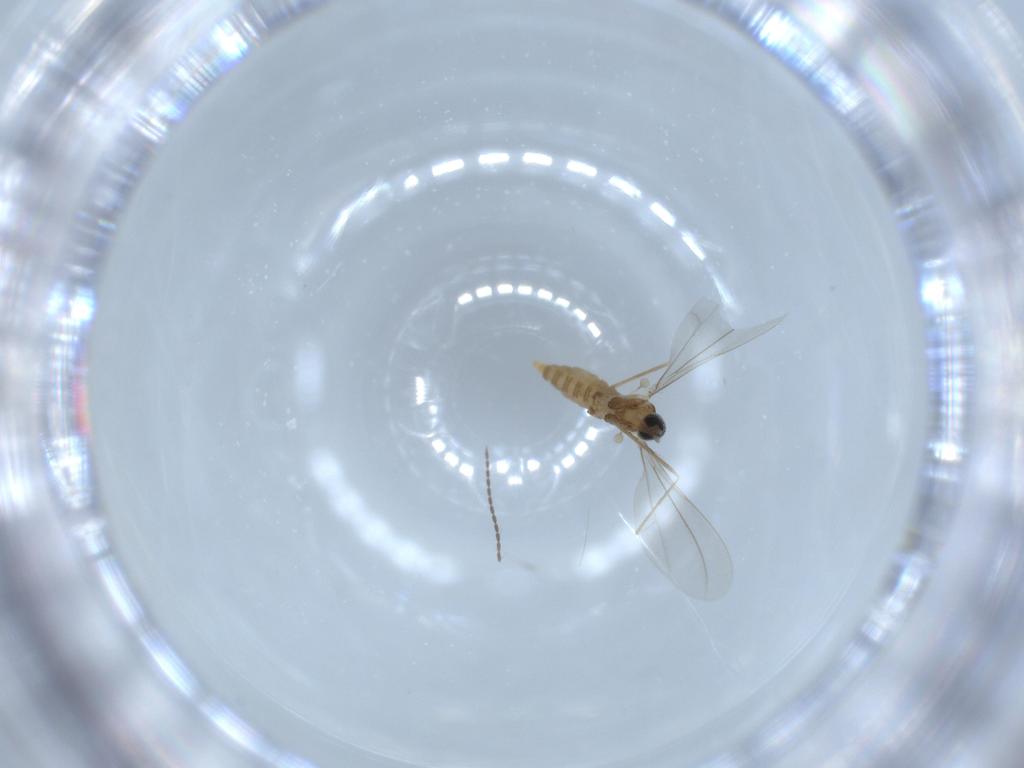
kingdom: Animalia
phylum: Arthropoda
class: Insecta
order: Diptera
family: Cecidomyiidae
